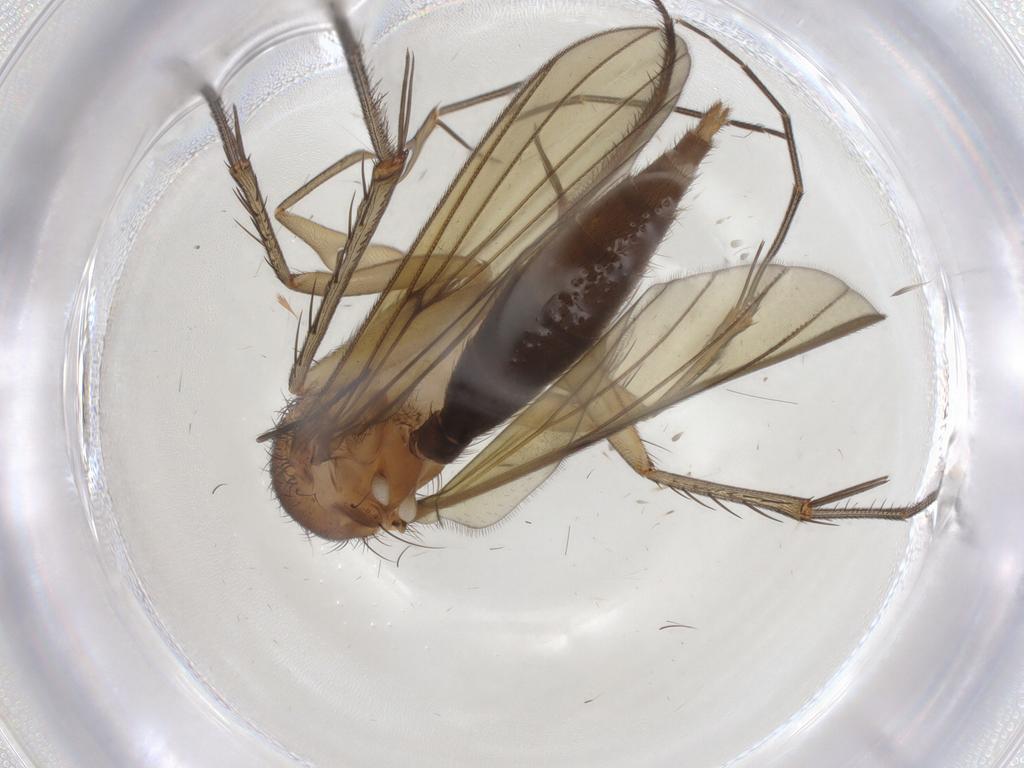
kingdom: Animalia
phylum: Arthropoda
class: Insecta
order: Diptera
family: Mycetophilidae
